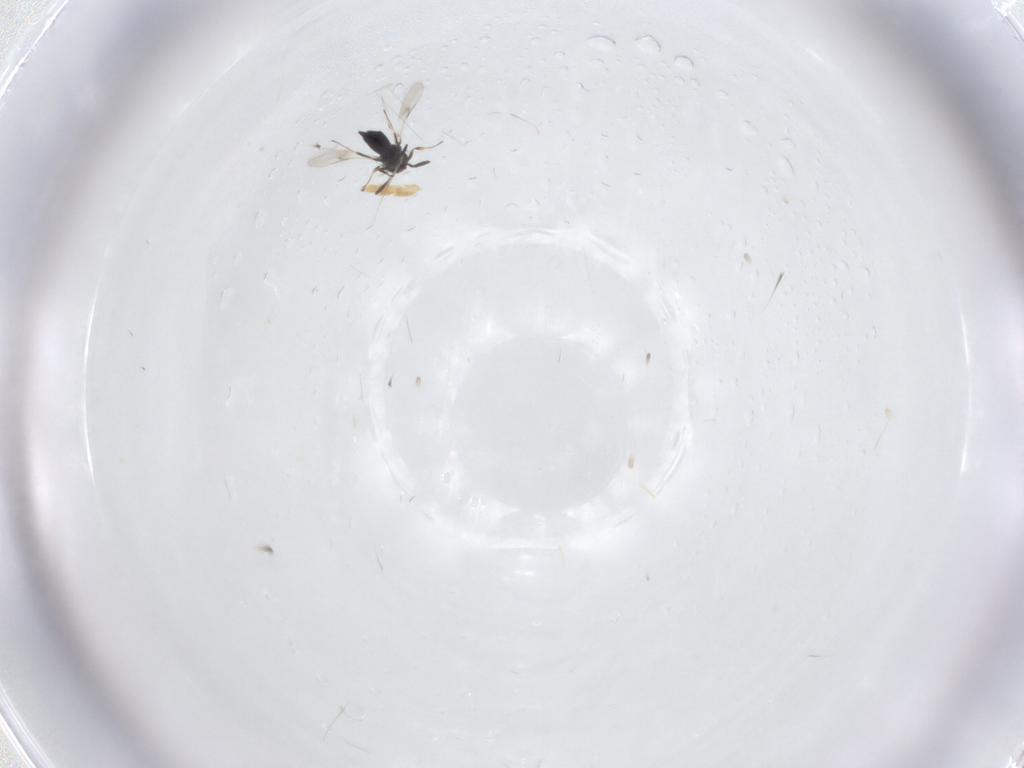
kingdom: Animalia
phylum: Arthropoda
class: Insecta
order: Hymenoptera
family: Scelionidae
